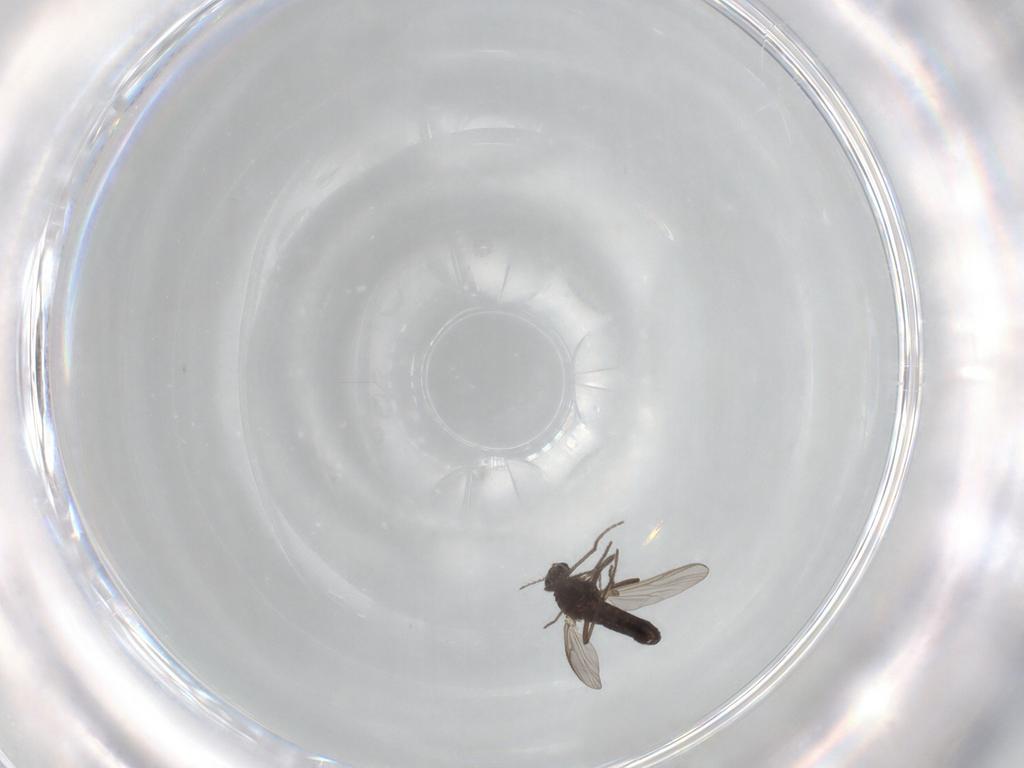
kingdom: Animalia
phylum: Arthropoda
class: Insecta
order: Diptera
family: Chironomidae
